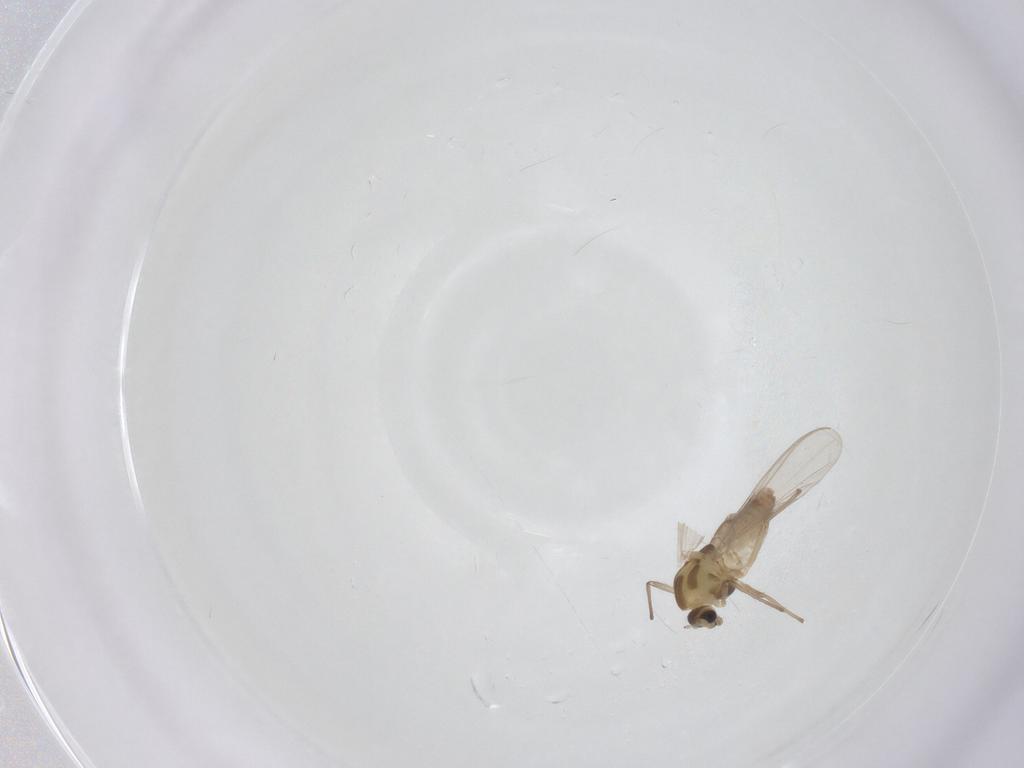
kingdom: Animalia
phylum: Arthropoda
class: Insecta
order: Diptera
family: Chironomidae
